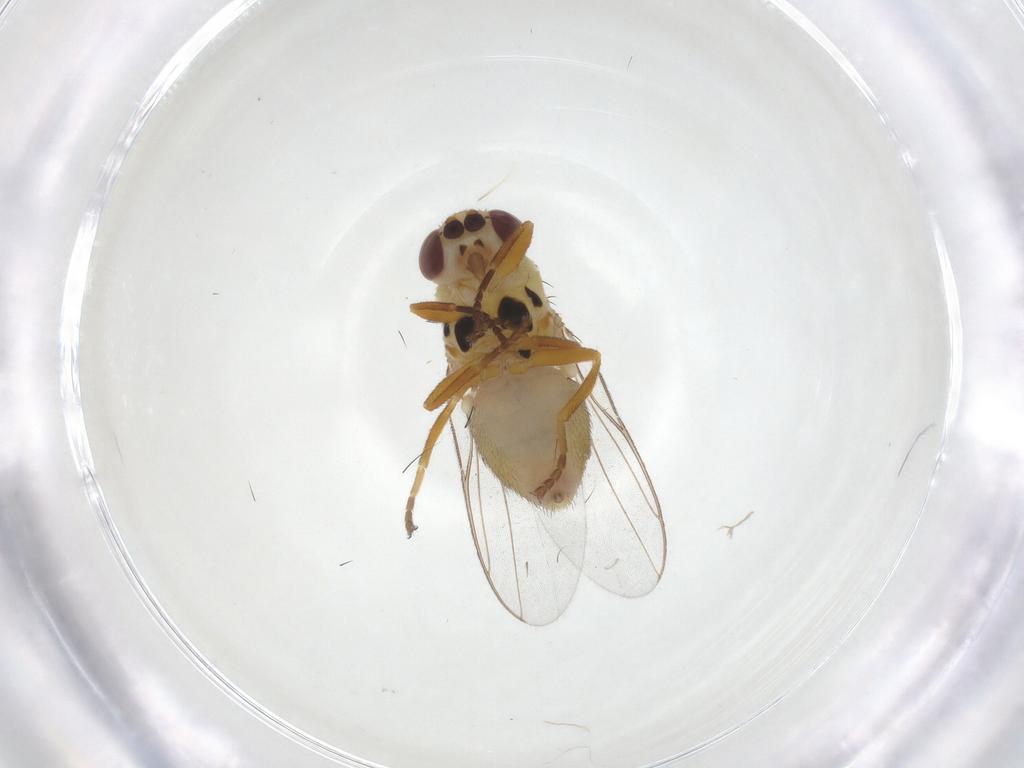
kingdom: Animalia
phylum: Arthropoda
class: Insecta
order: Diptera
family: Chloropidae
